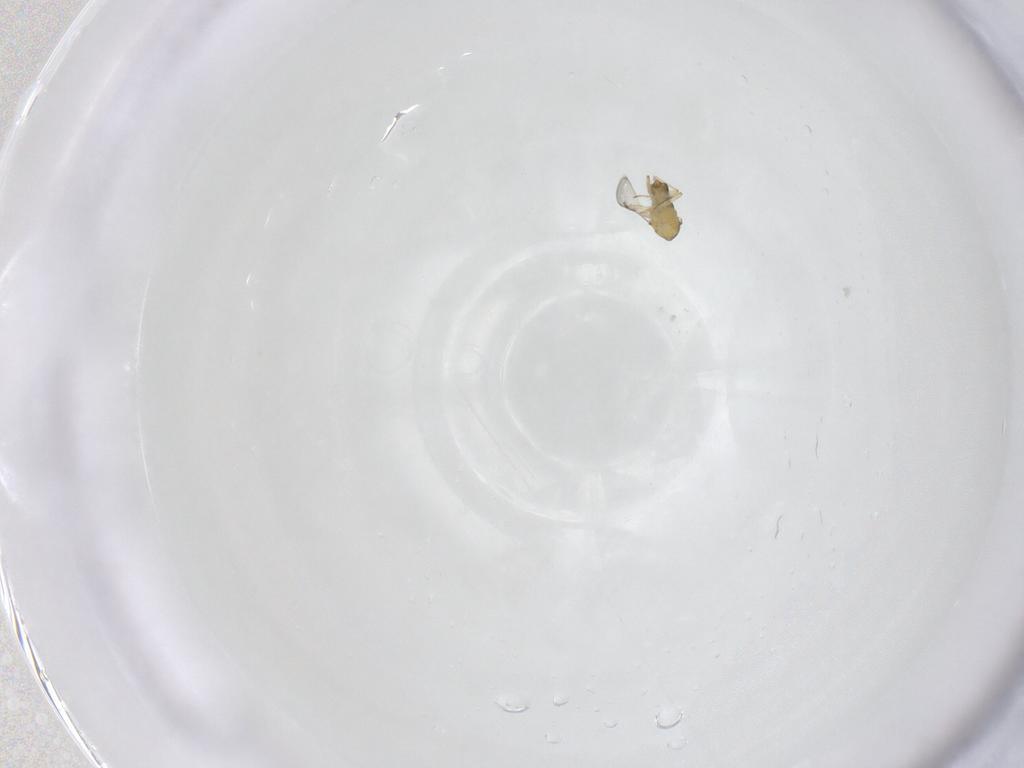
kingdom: Animalia
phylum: Arthropoda
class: Insecta
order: Hymenoptera
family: Aphelinidae
